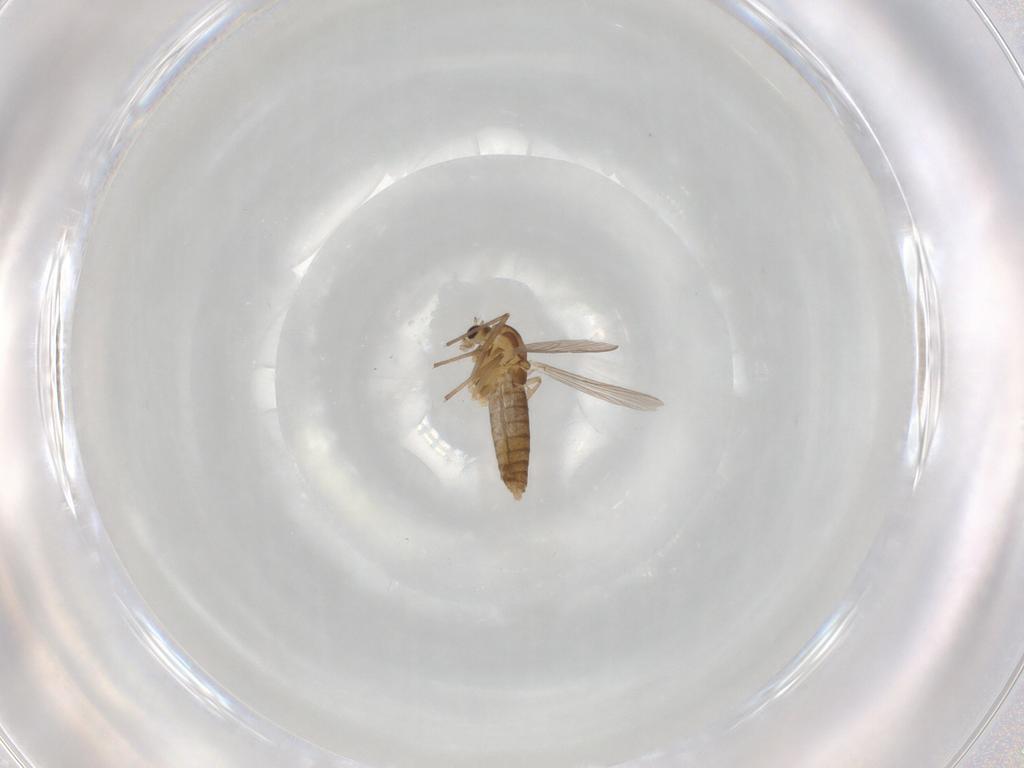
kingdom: Animalia
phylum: Arthropoda
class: Insecta
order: Diptera
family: Chironomidae
